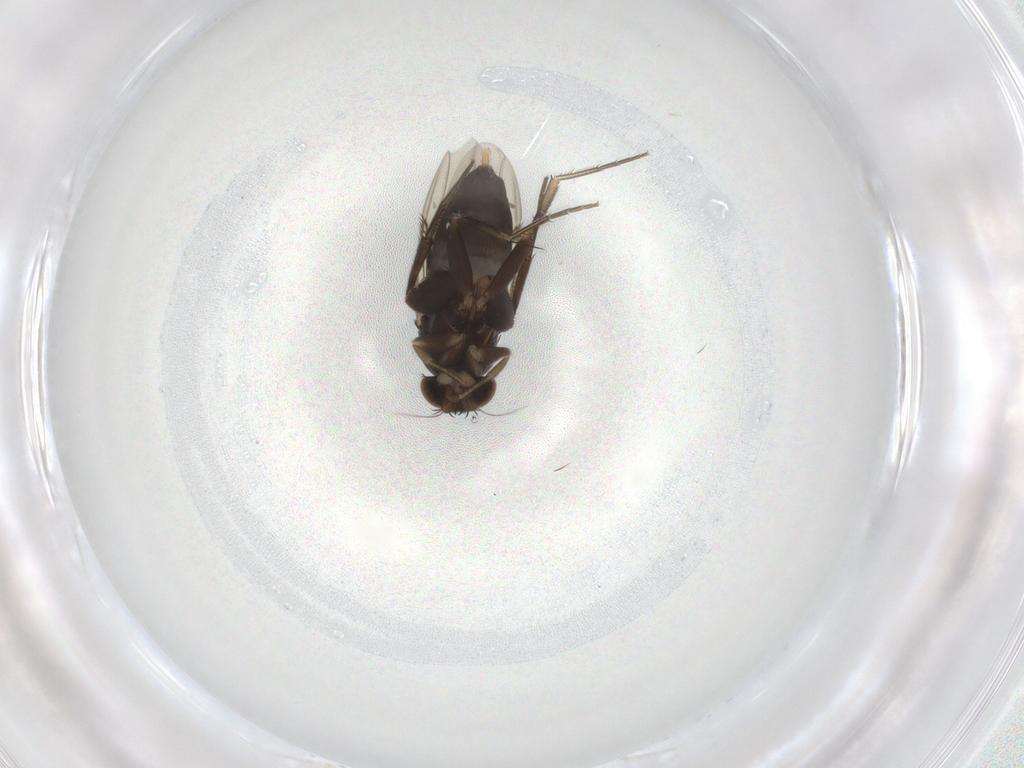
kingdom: Animalia
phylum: Arthropoda
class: Insecta
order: Diptera
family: Phoridae
